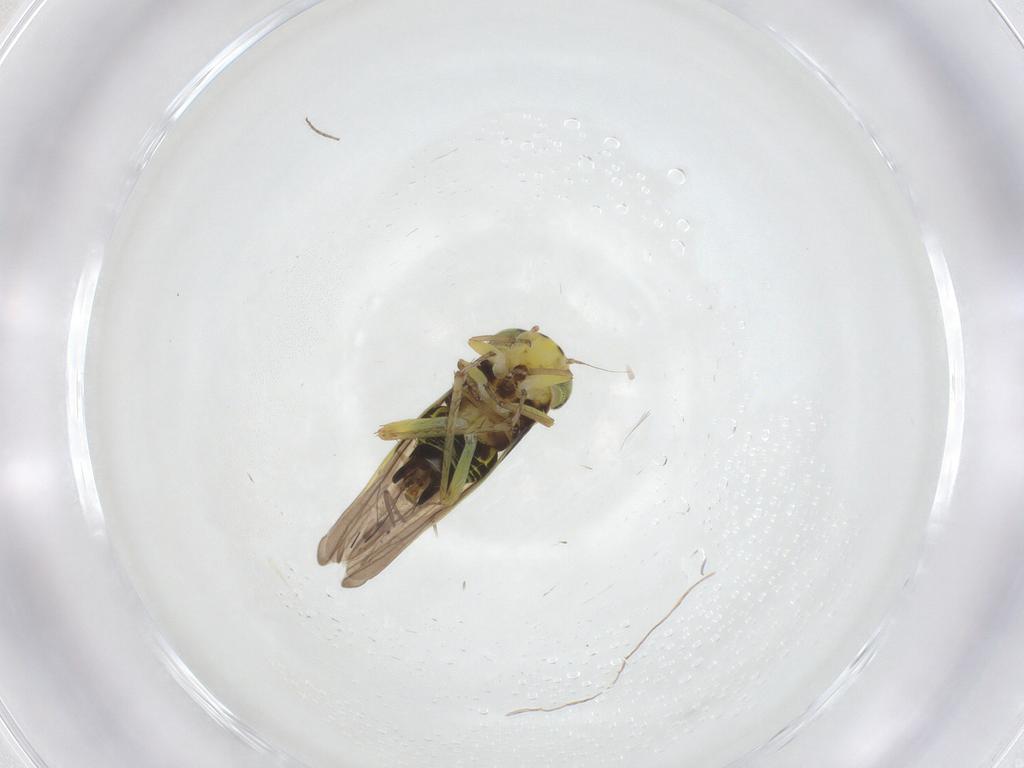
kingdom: Animalia
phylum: Arthropoda
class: Insecta
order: Hemiptera
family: Cicadellidae
